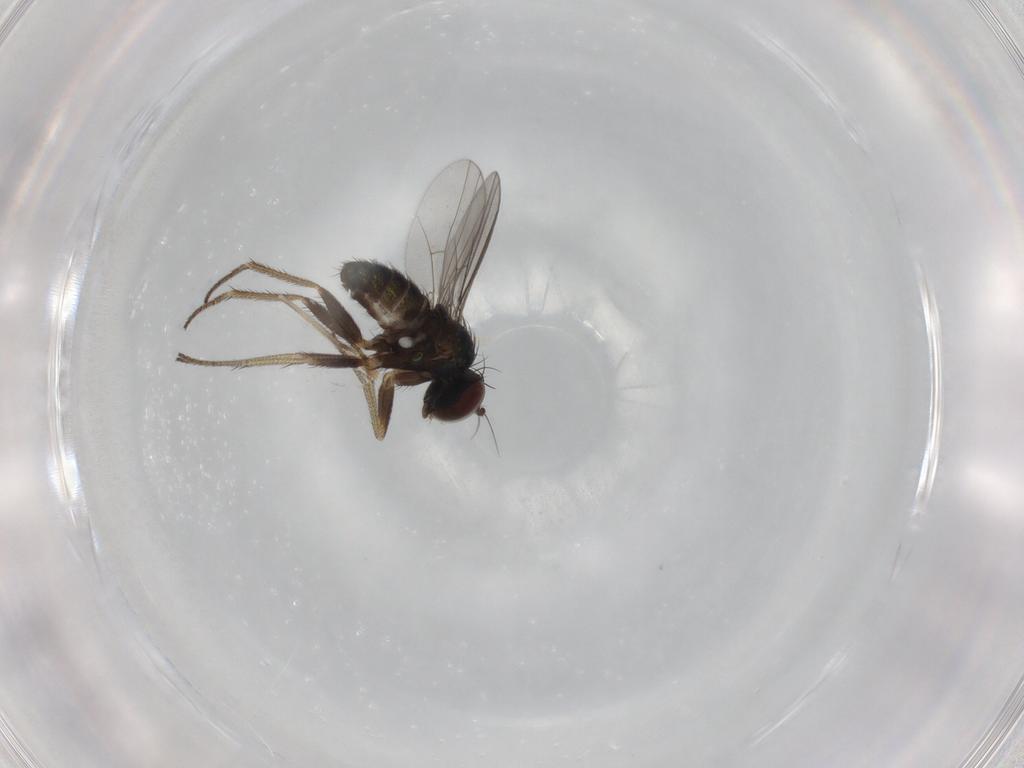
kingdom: Animalia
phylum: Arthropoda
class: Insecta
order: Diptera
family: Chironomidae
